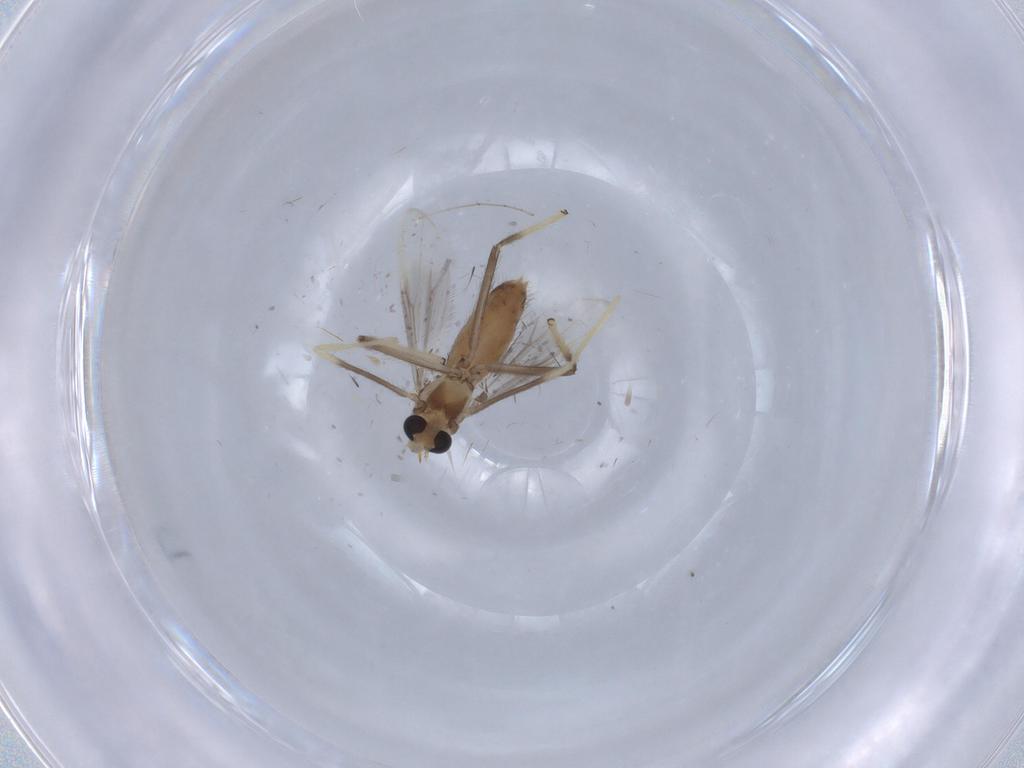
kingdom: Animalia
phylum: Arthropoda
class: Insecta
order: Diptera
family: Chironomidae
